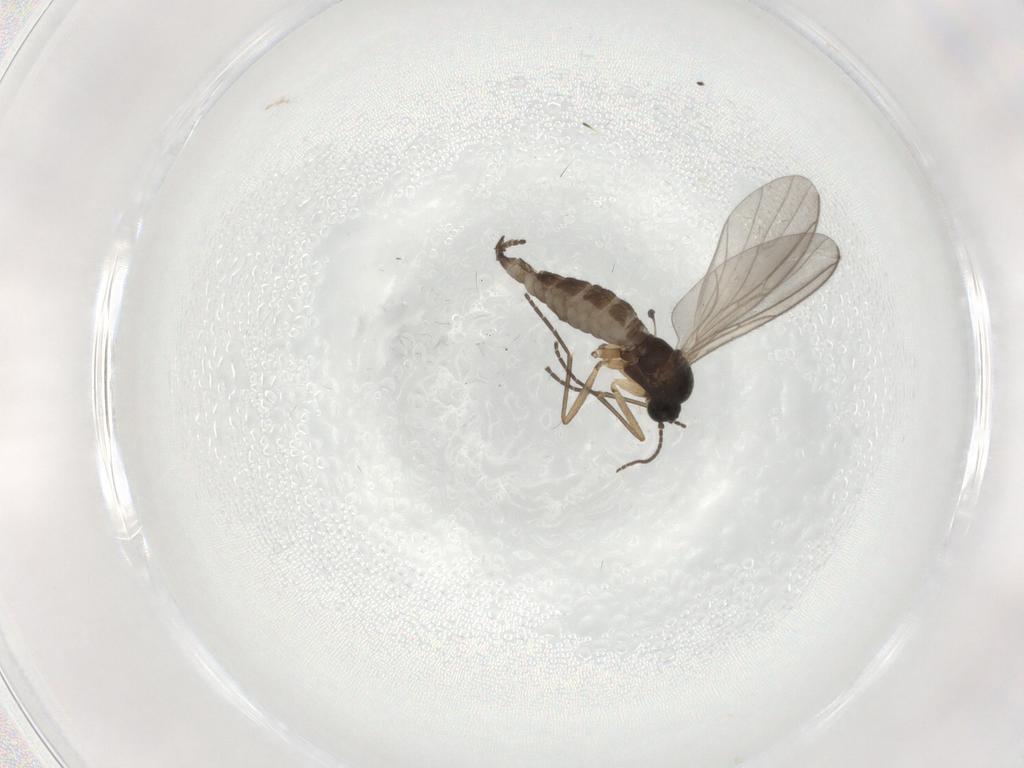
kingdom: Animalia
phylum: Arthropoda
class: Insecta
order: Diptera
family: Sciaridae
